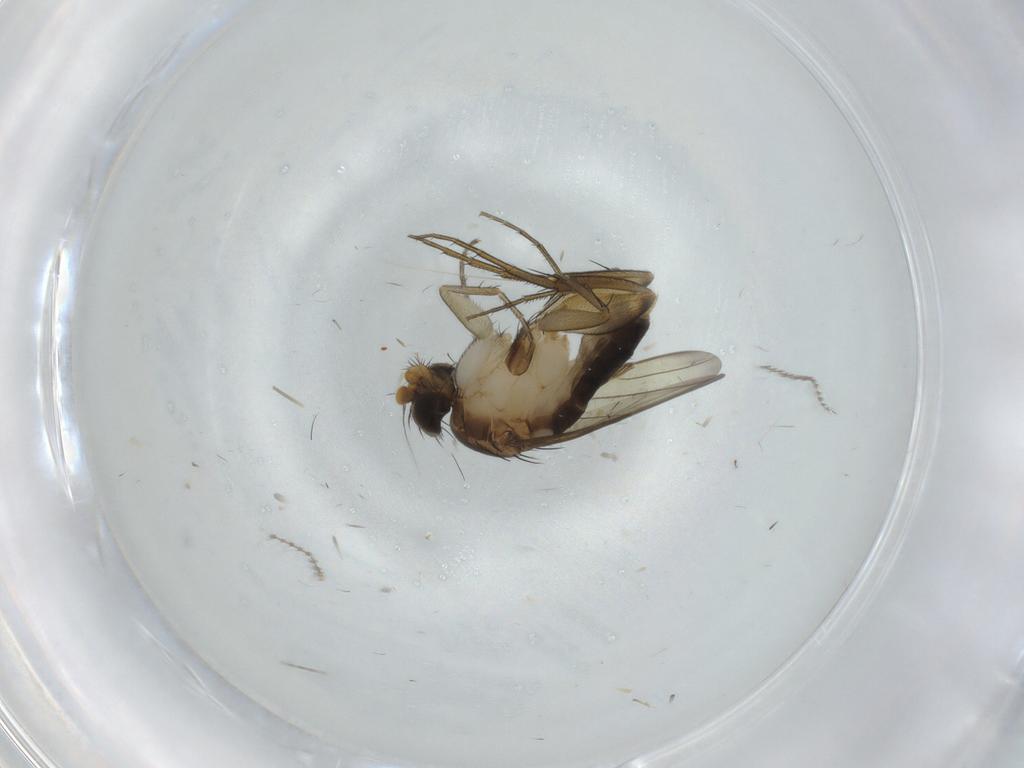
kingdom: Animalia
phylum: Arthropoda
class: Insecta
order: Diptera
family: Phoridae
